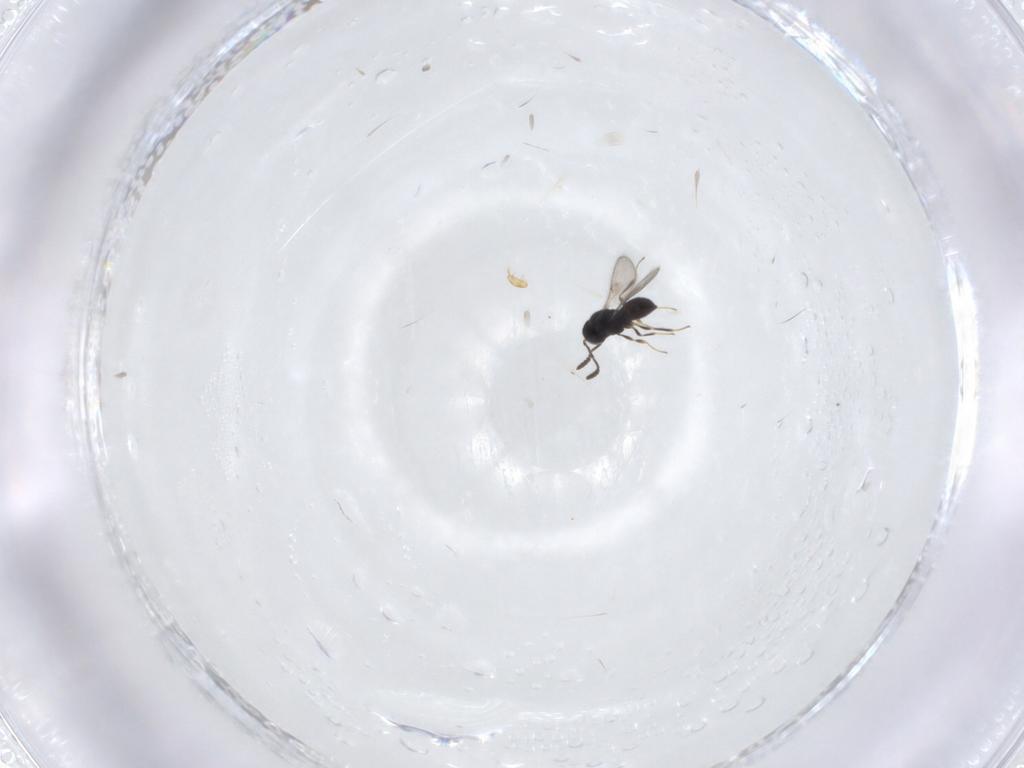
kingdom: Animalia
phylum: Arthropoda
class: Insecta
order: Hymenoptera
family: Scelionidae
